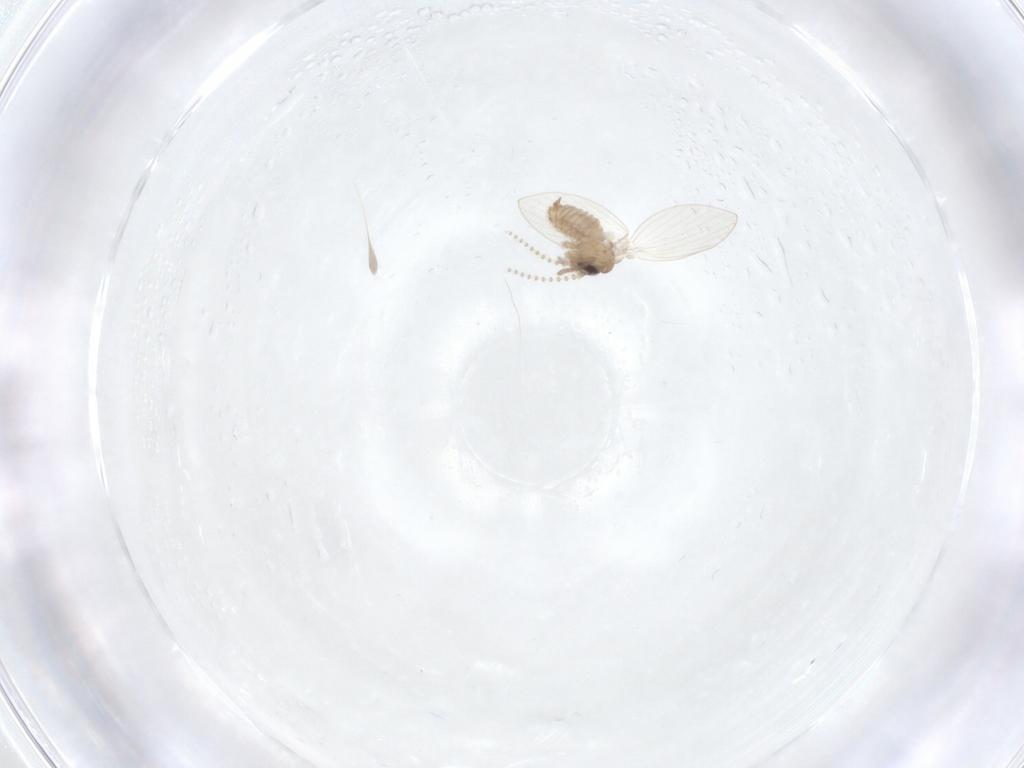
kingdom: Animalia
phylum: Arthropoda
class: Insecta
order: Diptera
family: Psychodidae
